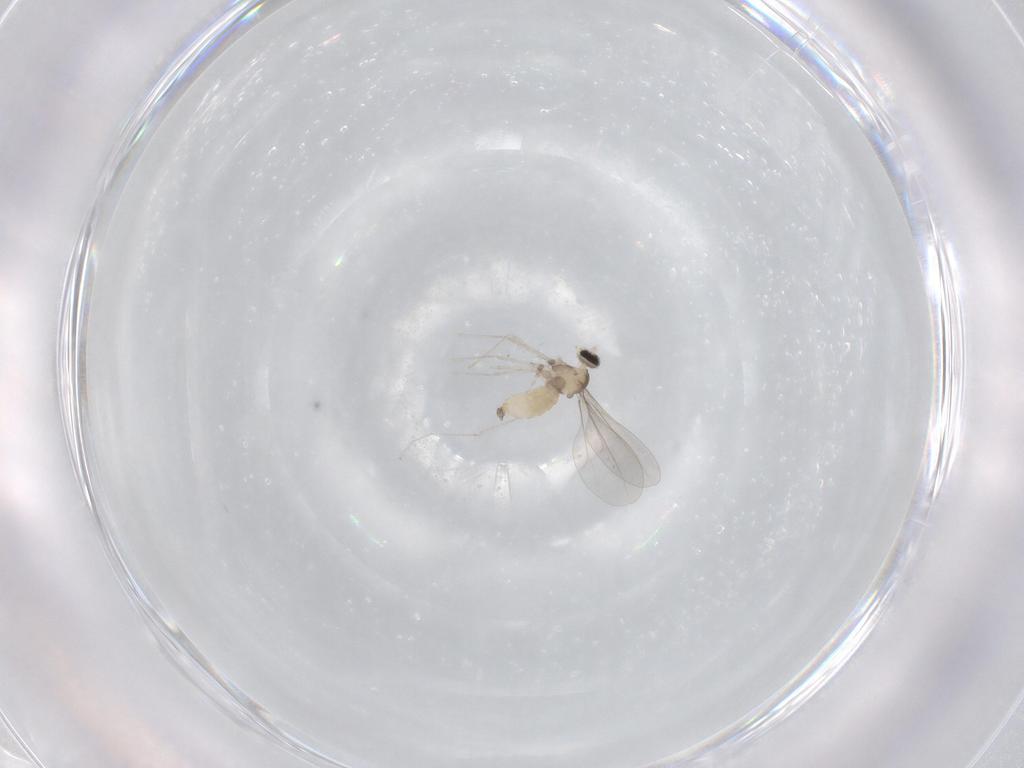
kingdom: Animalia
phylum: Arthropoda
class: Insecta
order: Diptera
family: Cecidomyiidae
